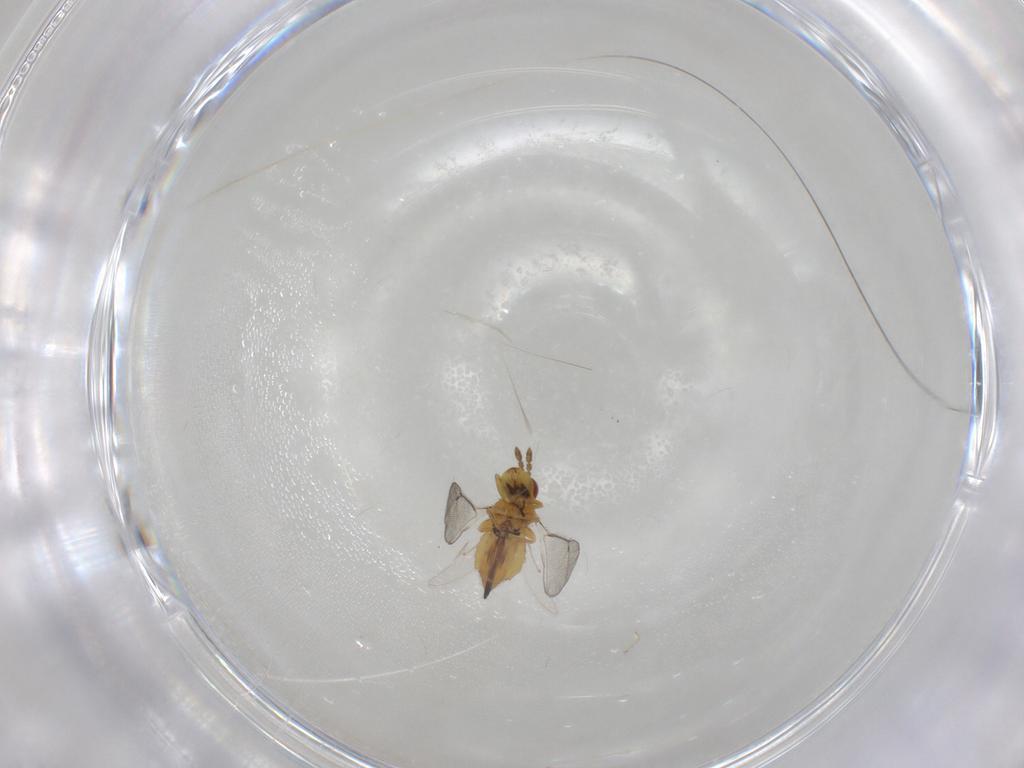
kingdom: Animalia
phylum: Arthropoda
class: Insecta
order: Hymenoptera
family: Eulophidae
